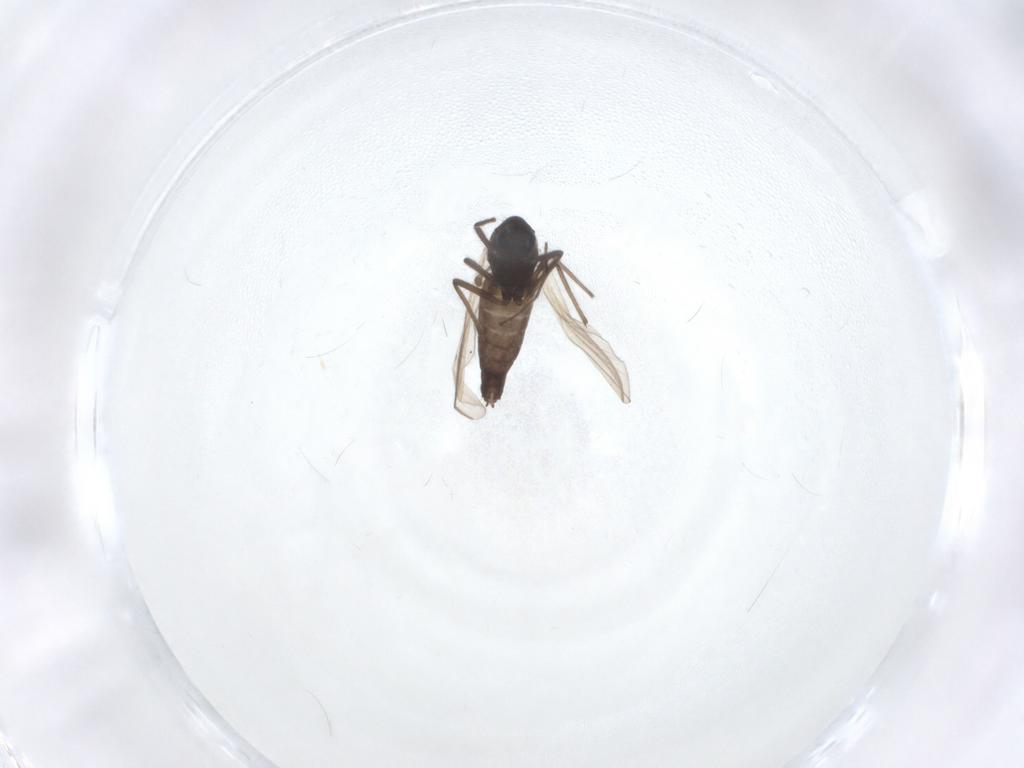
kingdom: Animalia
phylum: Arthropoda
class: Insecta
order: Diptera
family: Chironomidae
